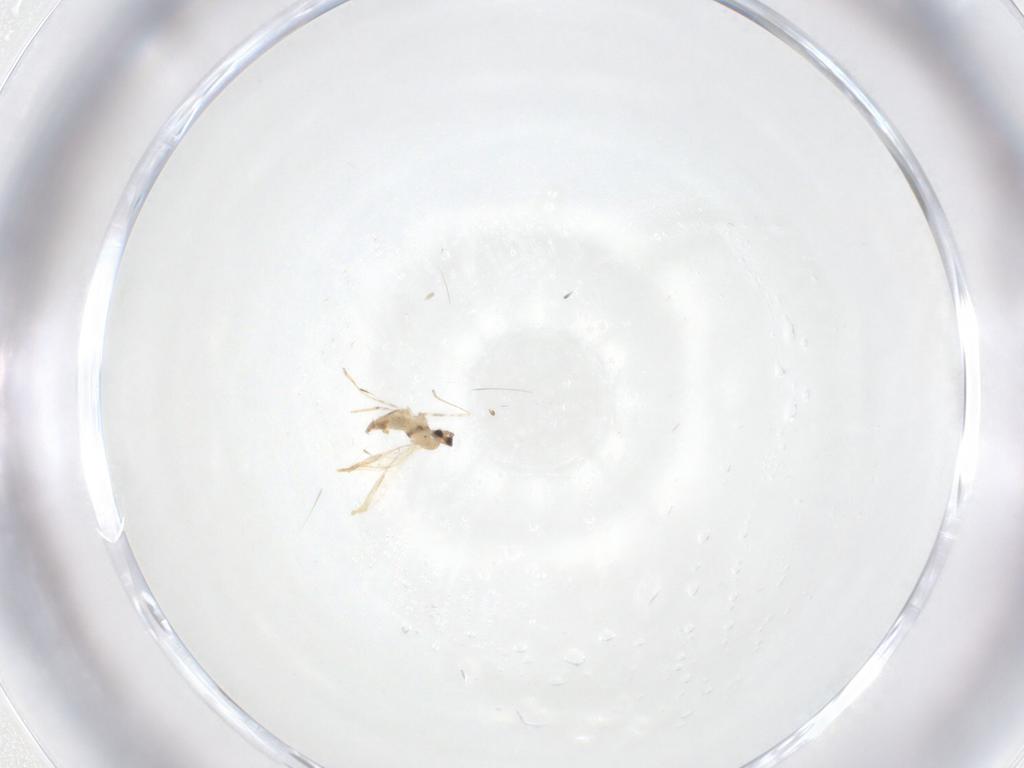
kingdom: Animalia
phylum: Arthropoda
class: Insecta
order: Diptera
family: Cecidomyiidae
